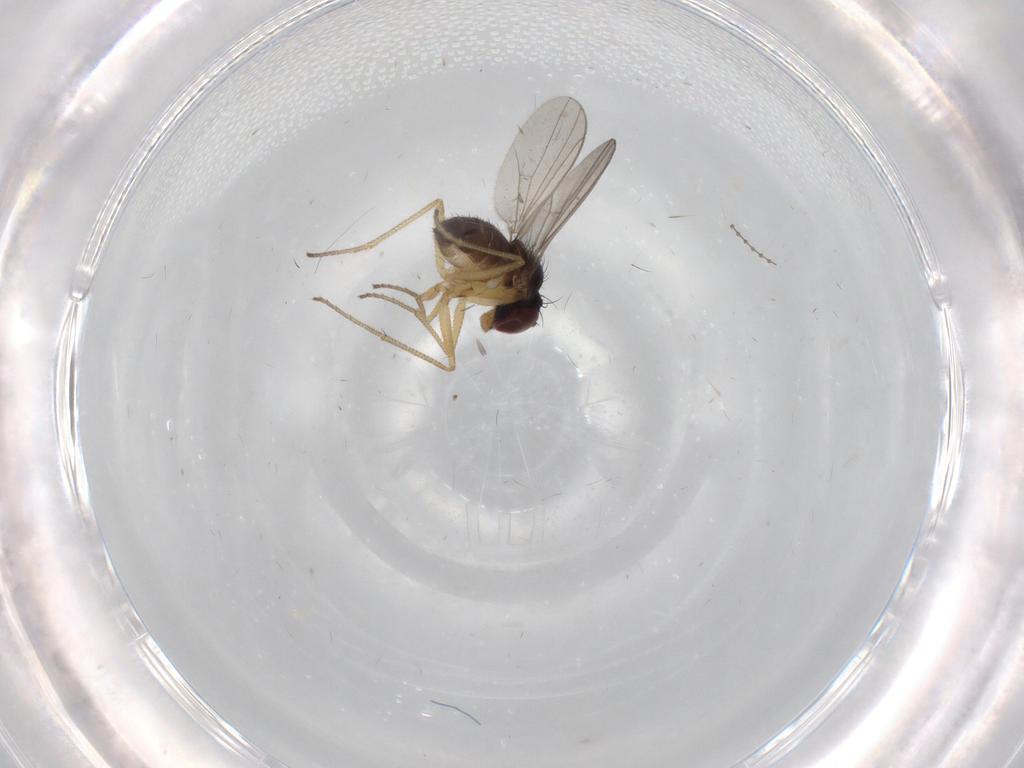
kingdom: Animalia
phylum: Arthropoda
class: Insecta
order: Diptera
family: Dolichopodidae
